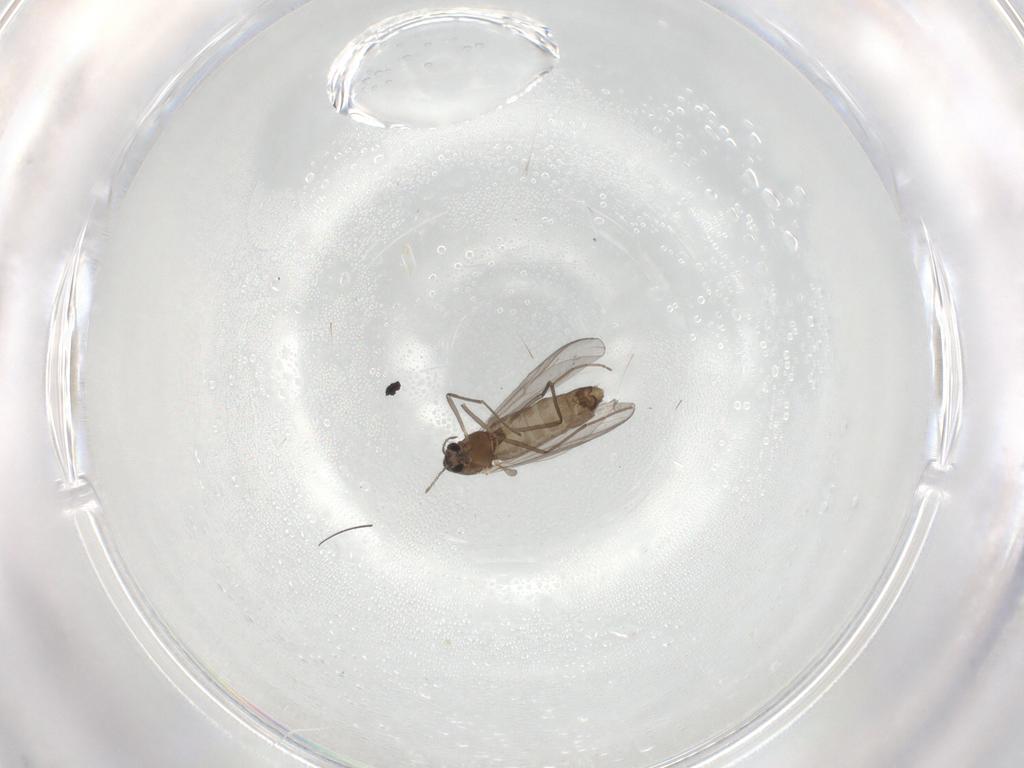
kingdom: Animalia
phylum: Arthropoda
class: Insecta
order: Diptera
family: Chironomidae
